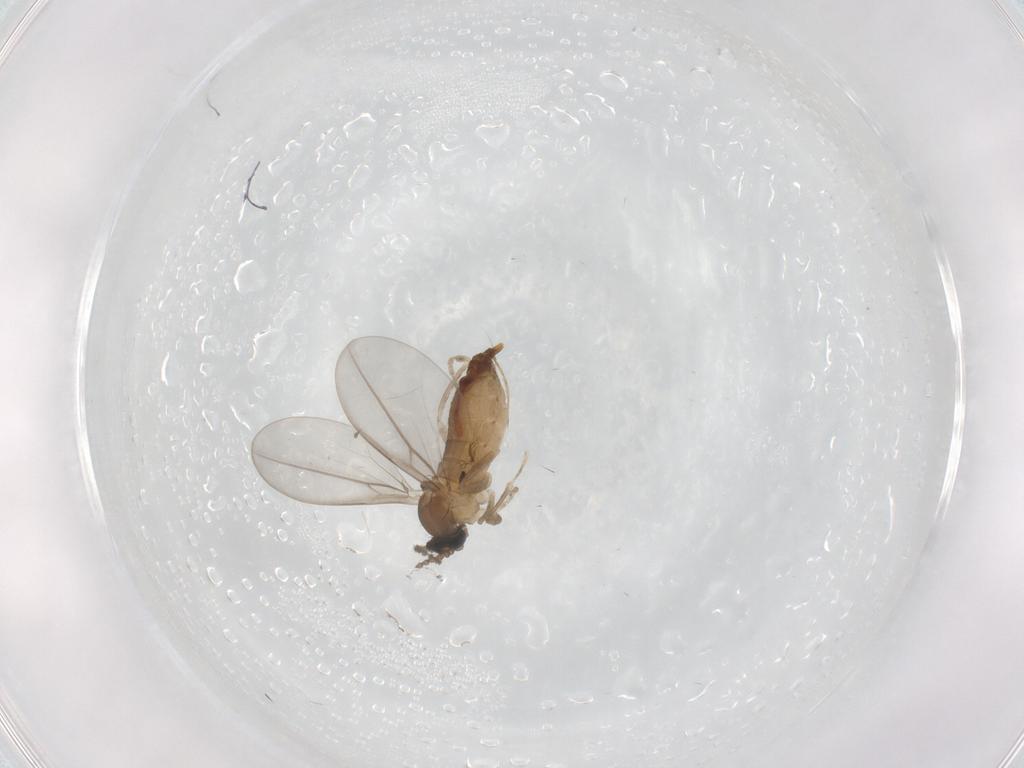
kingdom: Animalia
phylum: Arthropoda
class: Insecta
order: Diptera
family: Cecidomyiidae
